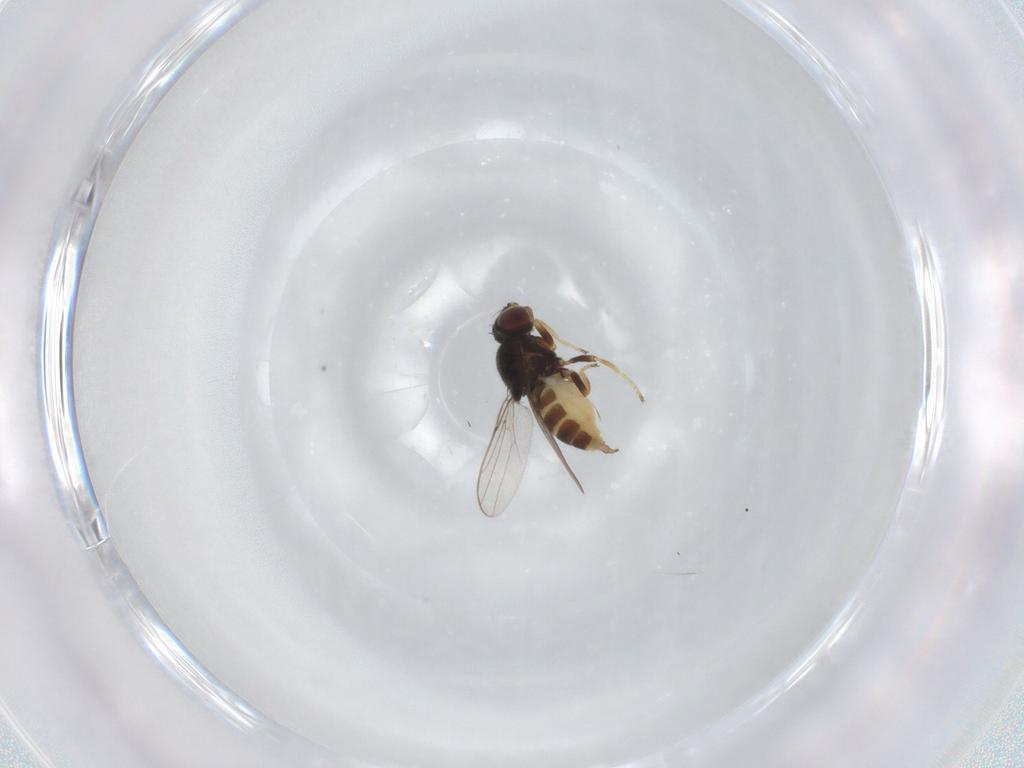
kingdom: Animalia
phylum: Arthropoda
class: Insecta
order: Diptera
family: Chloropidae
